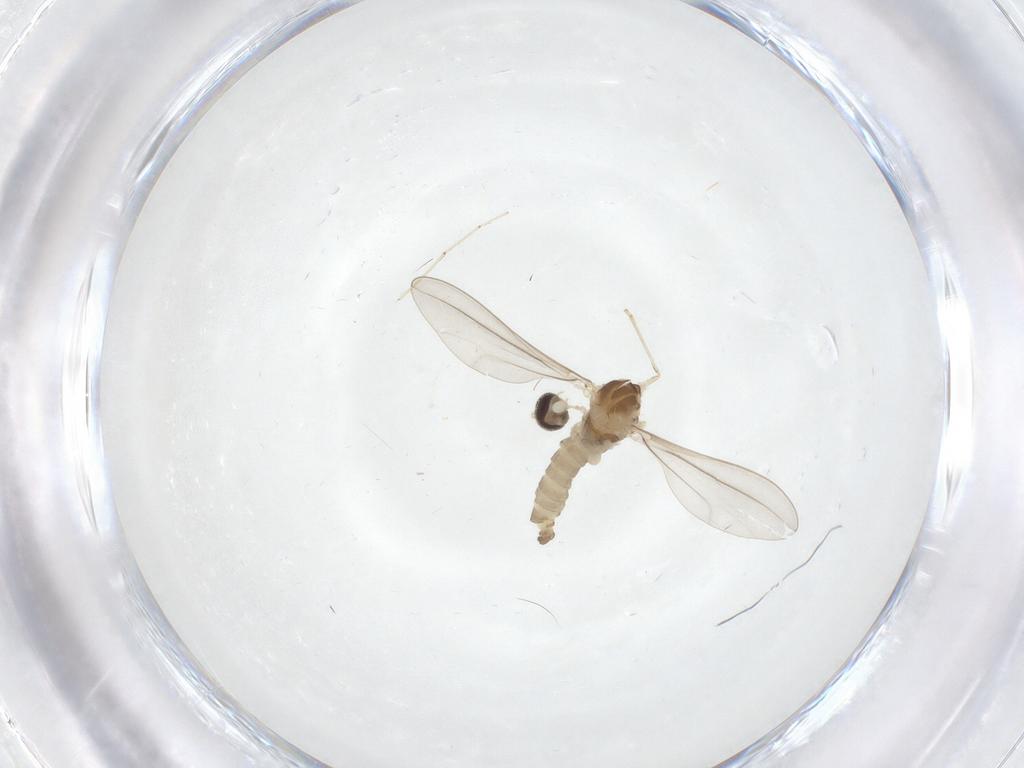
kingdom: Animalia
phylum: Arthropoda
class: Insecta
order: Diptera
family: Cecidomyiidae
